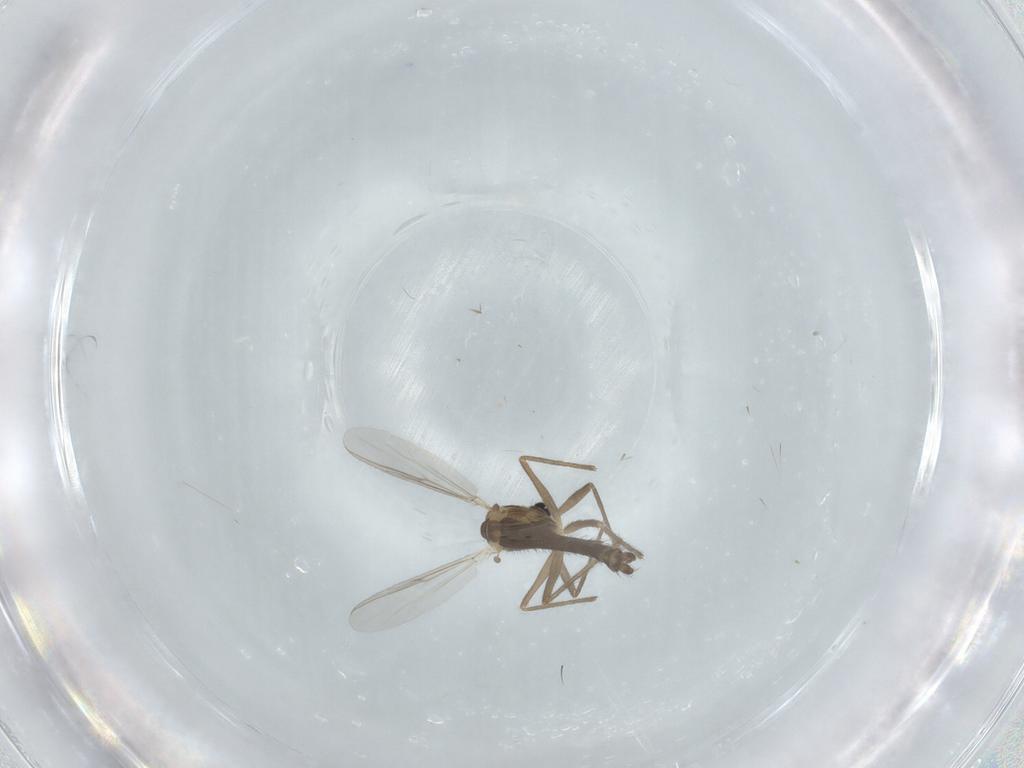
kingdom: Animalia
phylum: Arthropoda
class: Insecta
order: Diptera
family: Chironomidae
